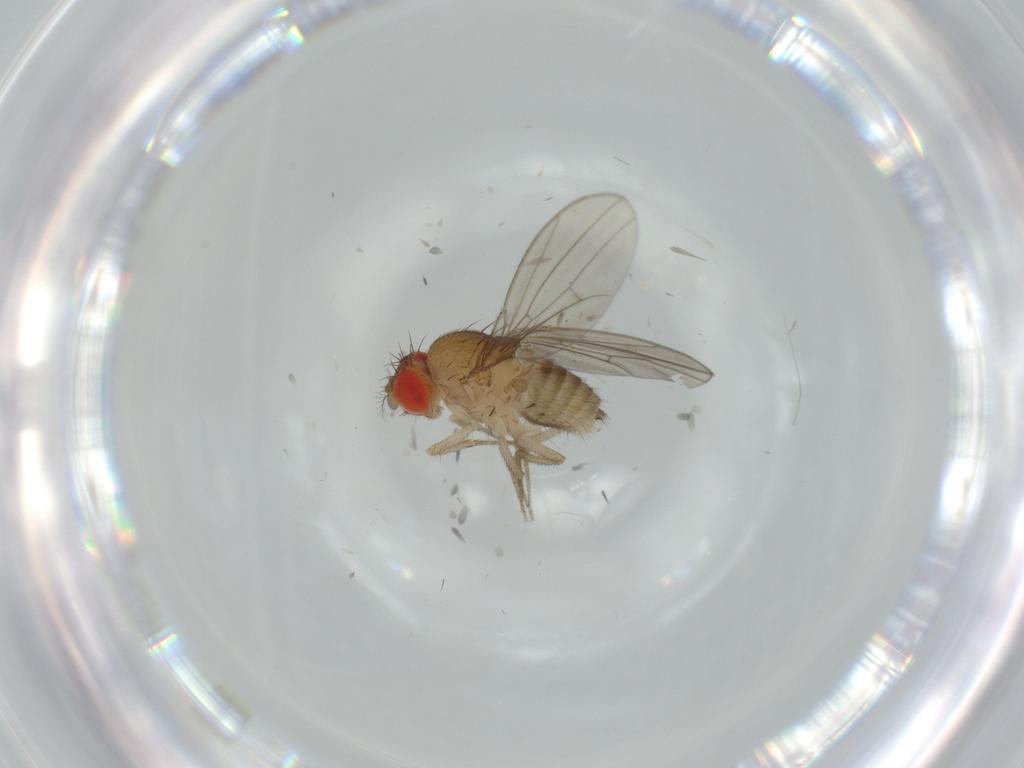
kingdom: Animalia
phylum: Arthropoda
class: Insecta
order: Diptera
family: Drosophilidae
